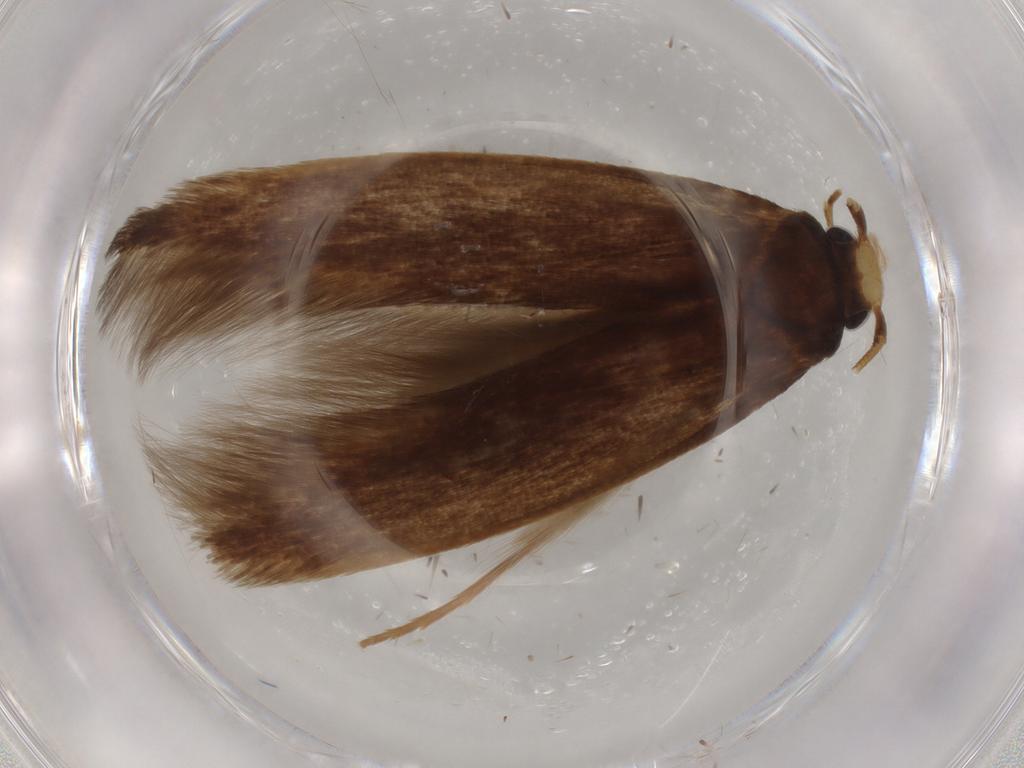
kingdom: Animalia
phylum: Arthropoda
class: Insecta
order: Lepidoptera
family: Tineidae
